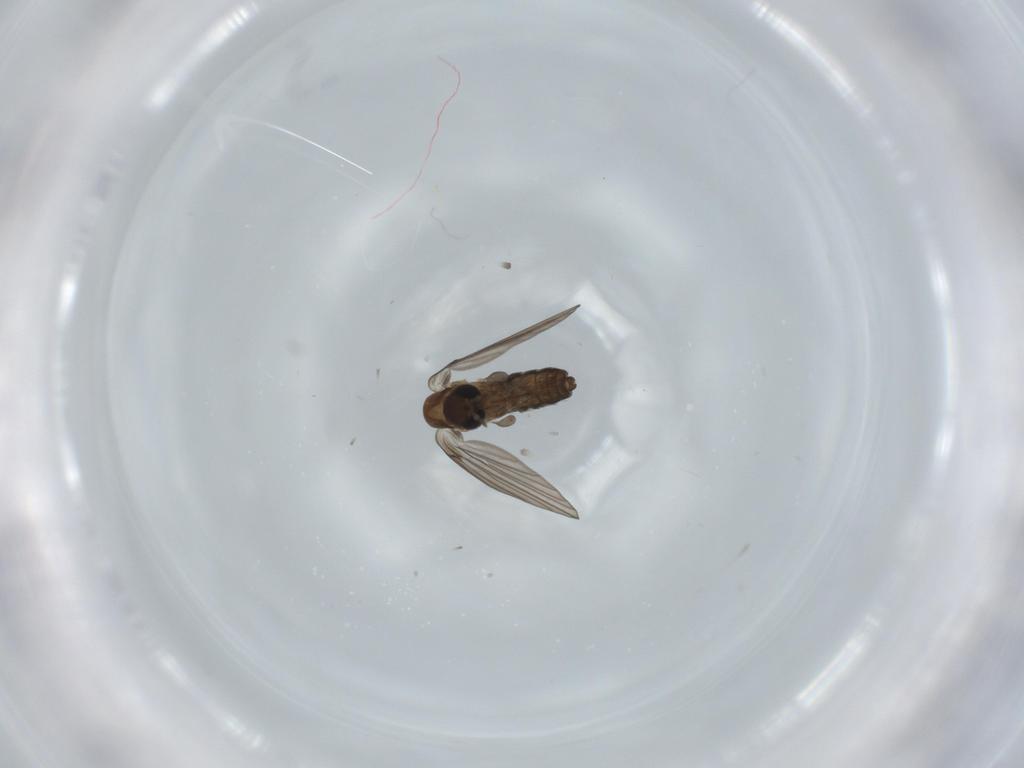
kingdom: Animalia
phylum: Arthropoda
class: Insecta
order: Diptera
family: Psychodidae
